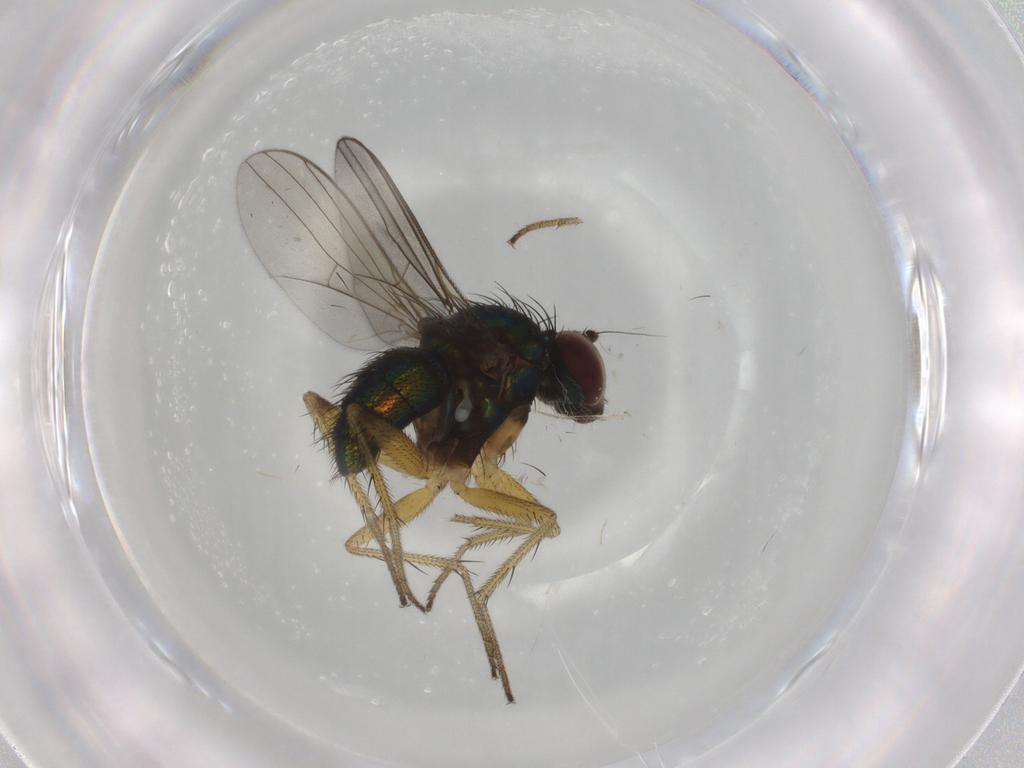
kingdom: Animalia
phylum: Arthropoda
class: Insecta
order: Diptera
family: Dolichopodidae
